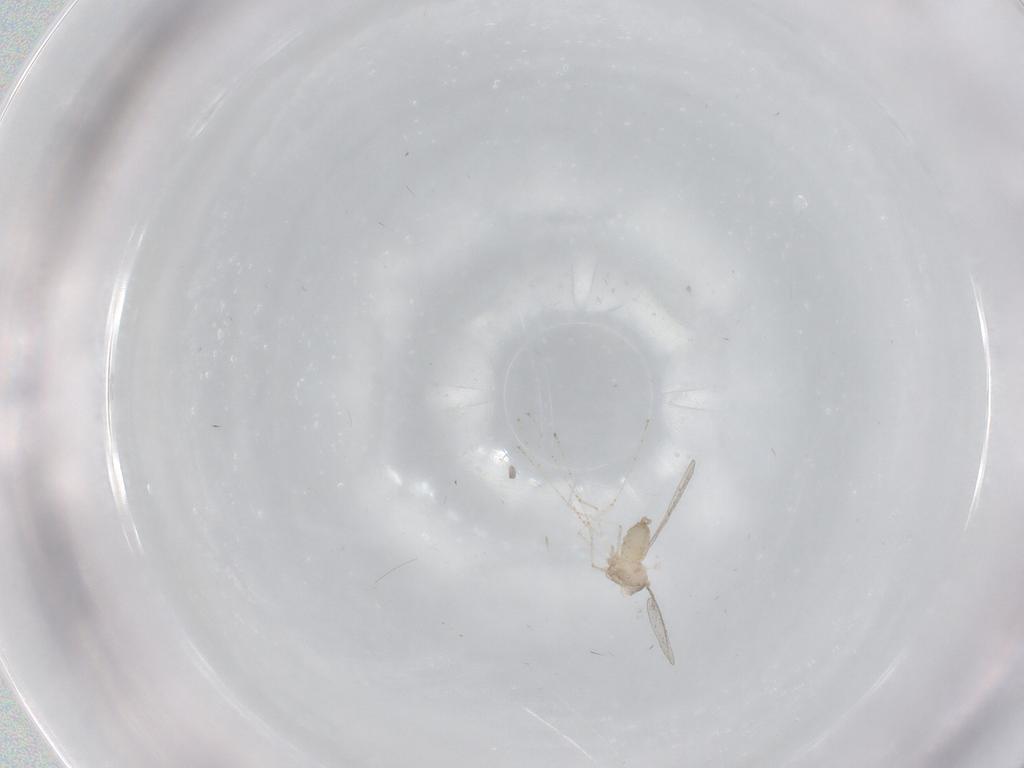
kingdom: Animalia
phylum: Arthropoda
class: Insecta
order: Diptera
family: Cecidomyiidae
